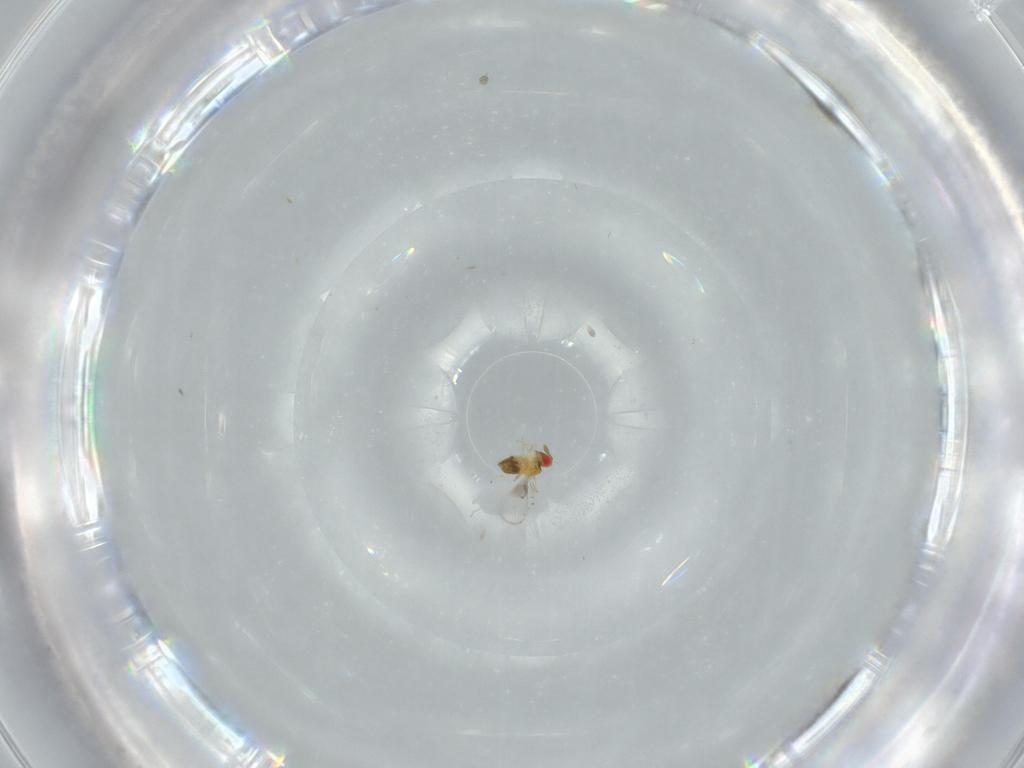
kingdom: Animalia
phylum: Arthropoda
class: Insecta
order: Hymenoptera
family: Trichogrammatidae
